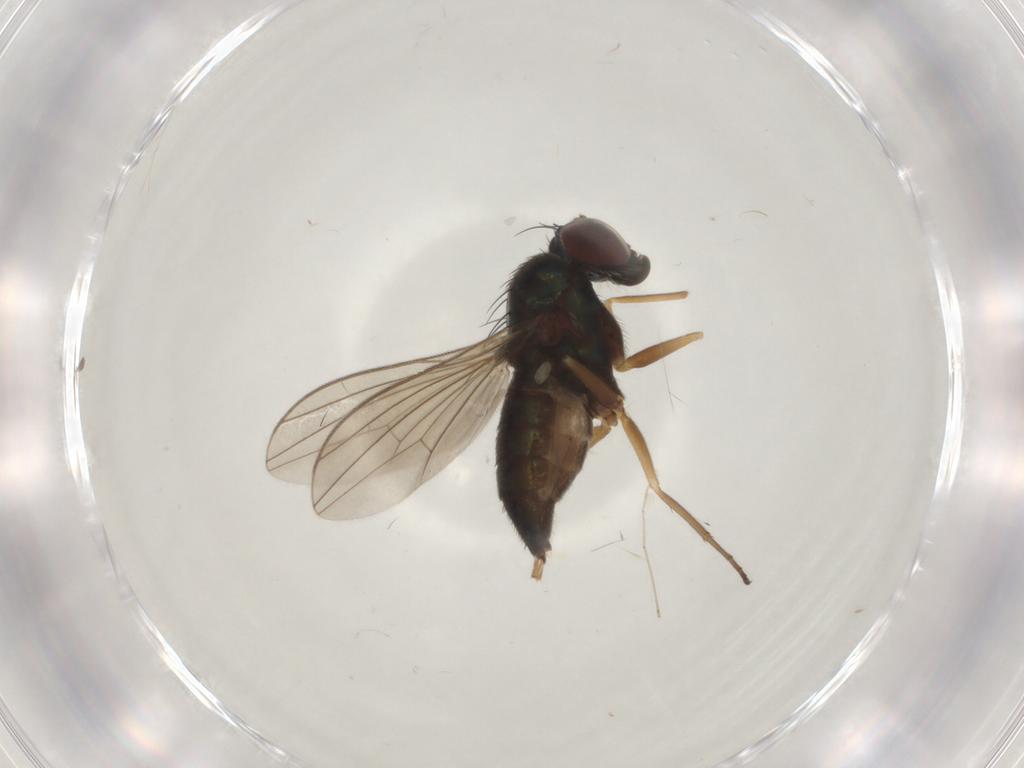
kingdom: Animalia
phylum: Arthropoda
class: Insecta
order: Diptera
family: Dolichopodidae
